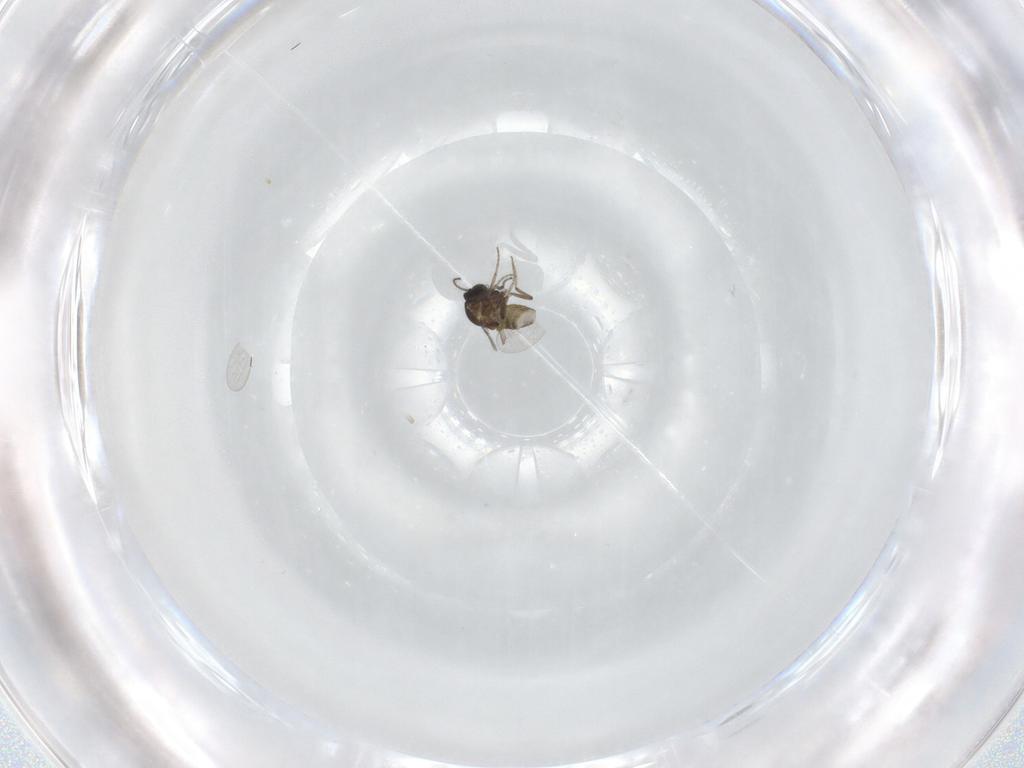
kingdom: Animalia
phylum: Arthropoda
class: Insecta
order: Diptera
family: Ceratopogonidae
